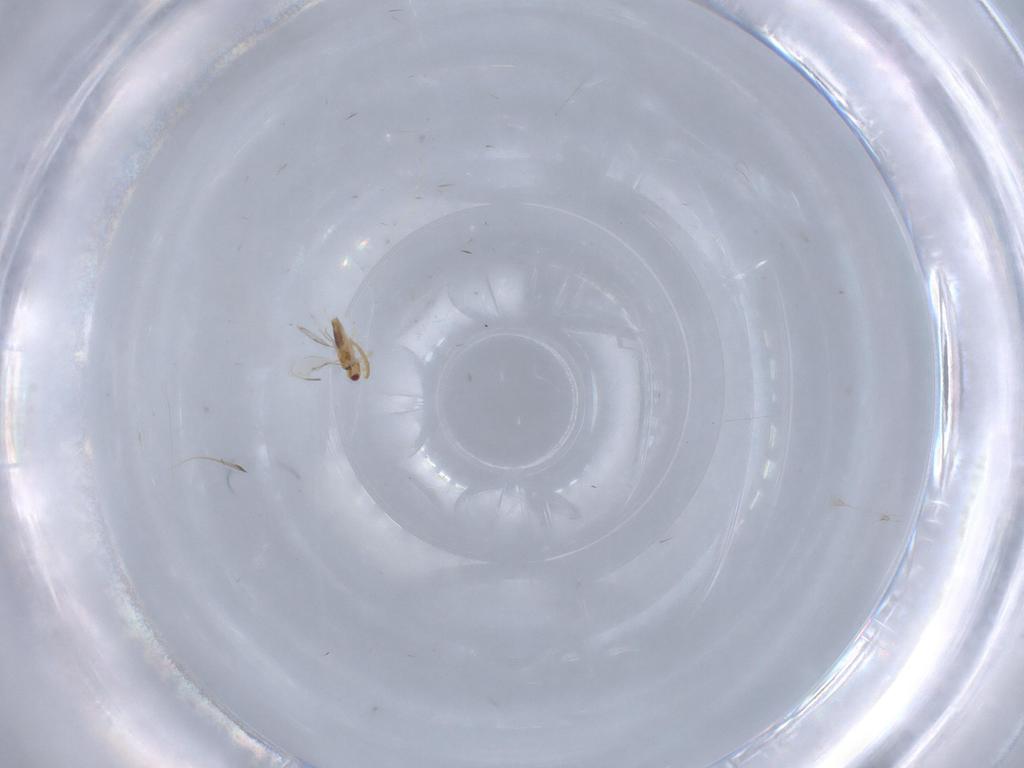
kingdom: Animalia
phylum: Arthropoda
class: Insecta
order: Hymenoptera
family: Aphelinidae
